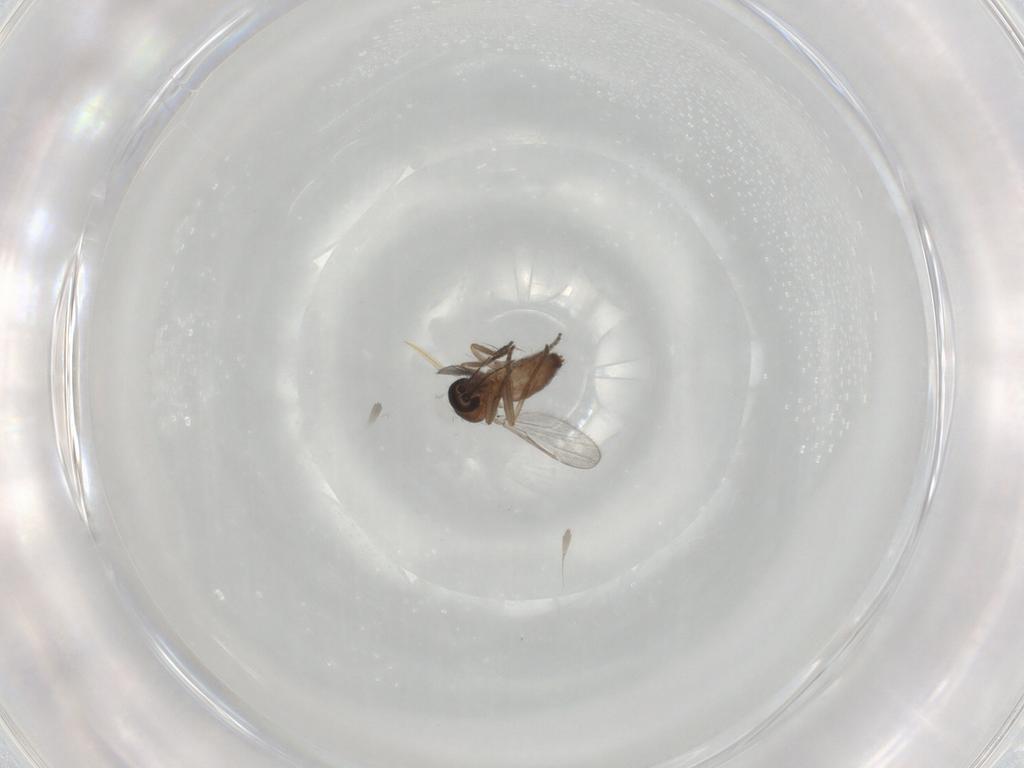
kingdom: Animalia
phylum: Arthropoda
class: Insecta
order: Diptera
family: Ceratopogonidae
